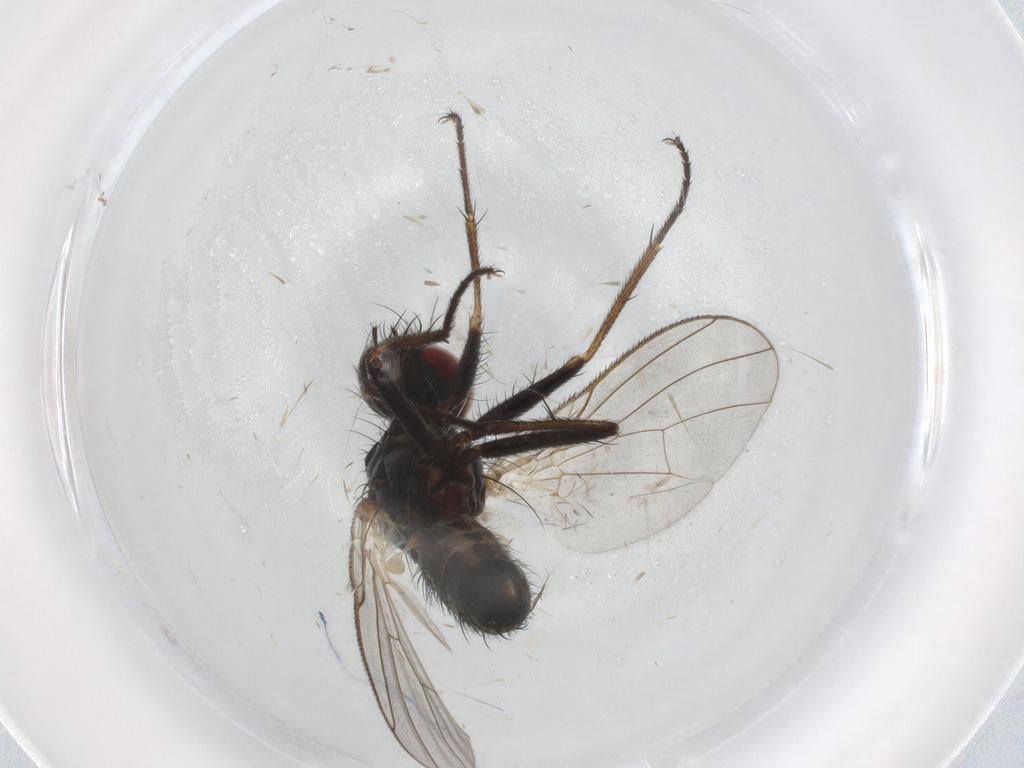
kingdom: Animalia
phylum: Arthropoda
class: Insecta
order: Diptera
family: Muscidae
